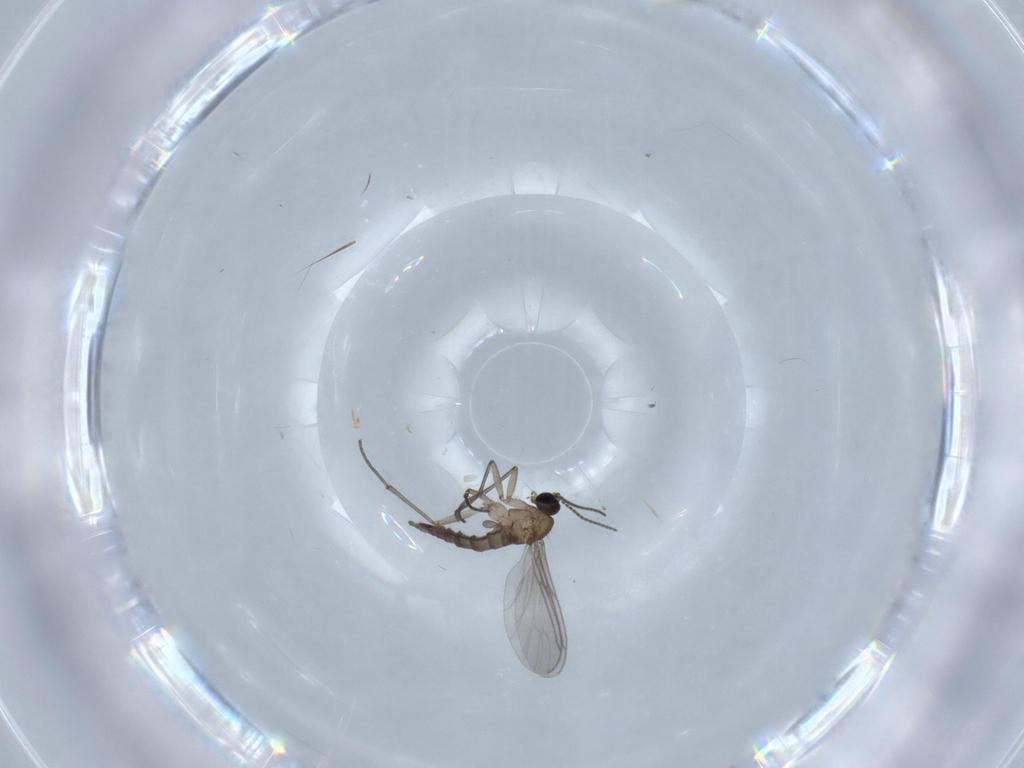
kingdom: Animalia
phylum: Arthropoda
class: Insecta
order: Diptera
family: Sciaridae
